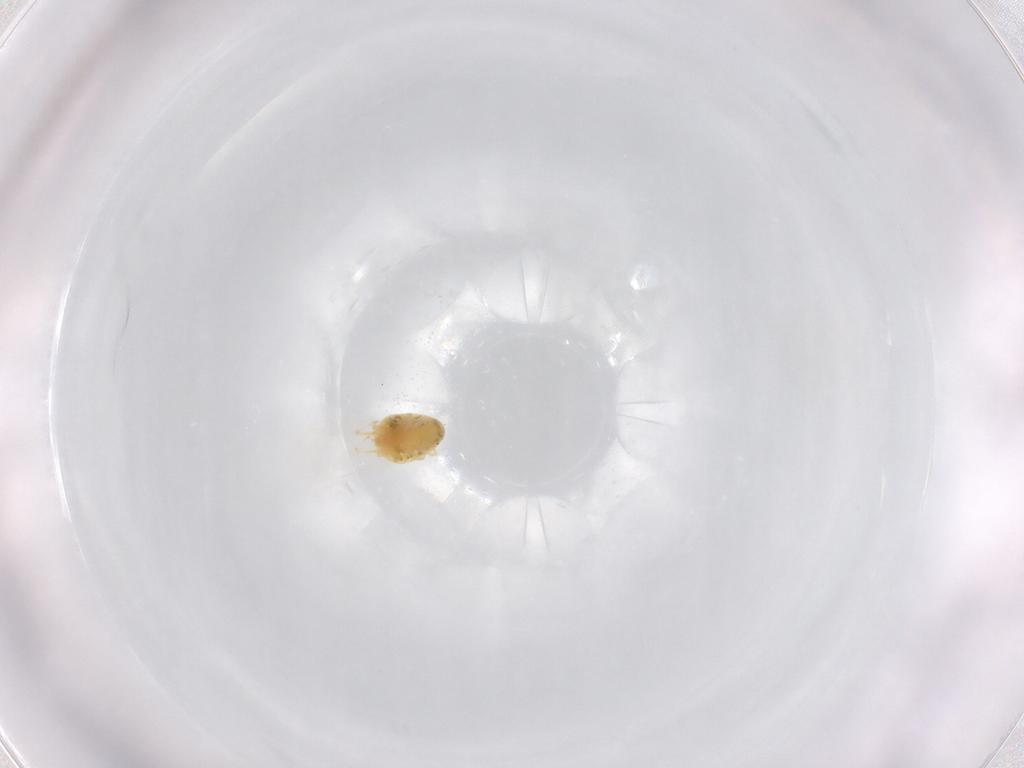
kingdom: Animalia
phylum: Arthropoda
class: Arachnida
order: Trombidiformes
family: Tetranychidae
